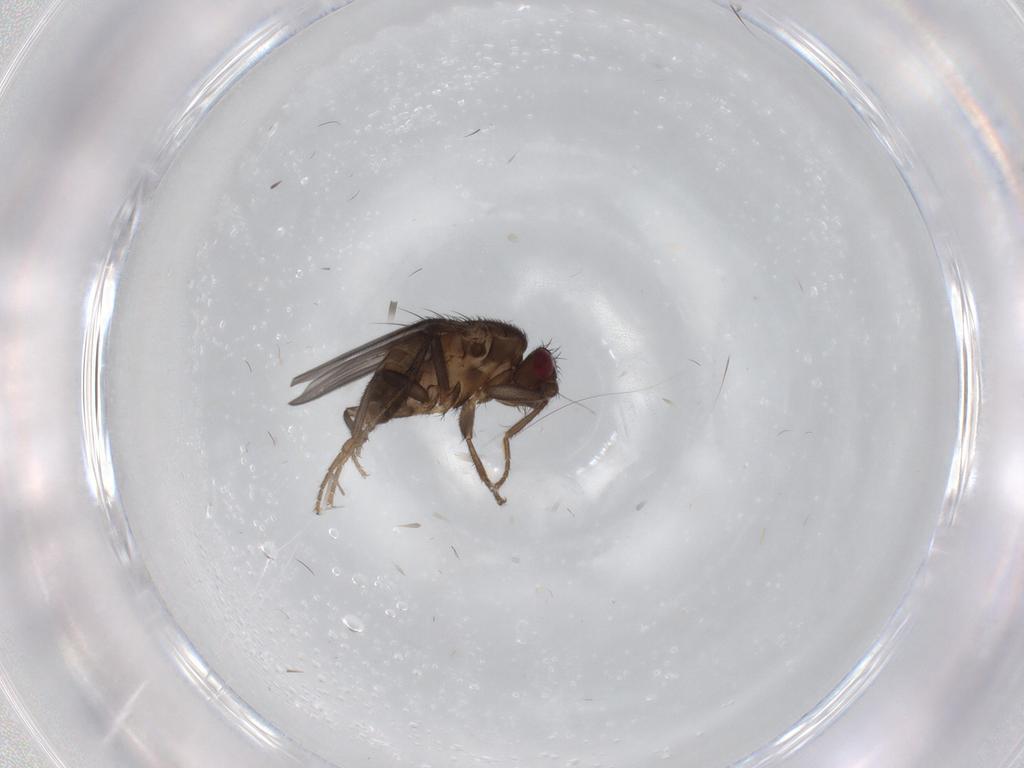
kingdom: Animalia
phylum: Arthropoda
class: Insecta
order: Diptera
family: Sphaeroceridae
